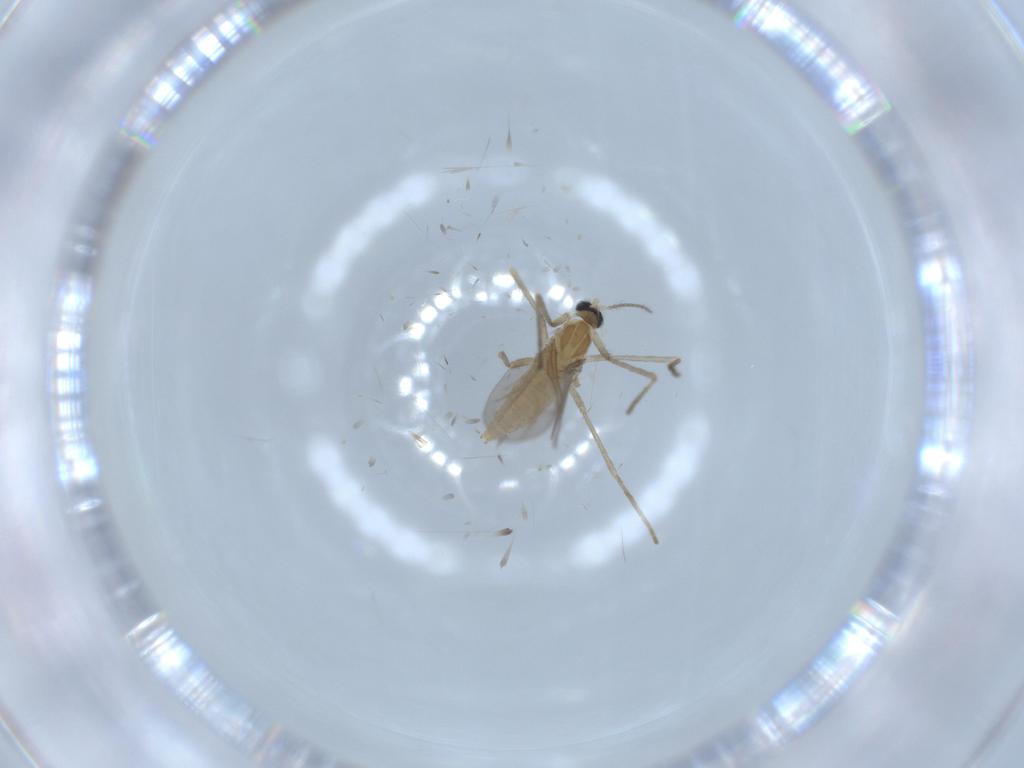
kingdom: Animalia
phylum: Arthropoda
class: Insecta
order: Diptera
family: Cecidomyiidae
